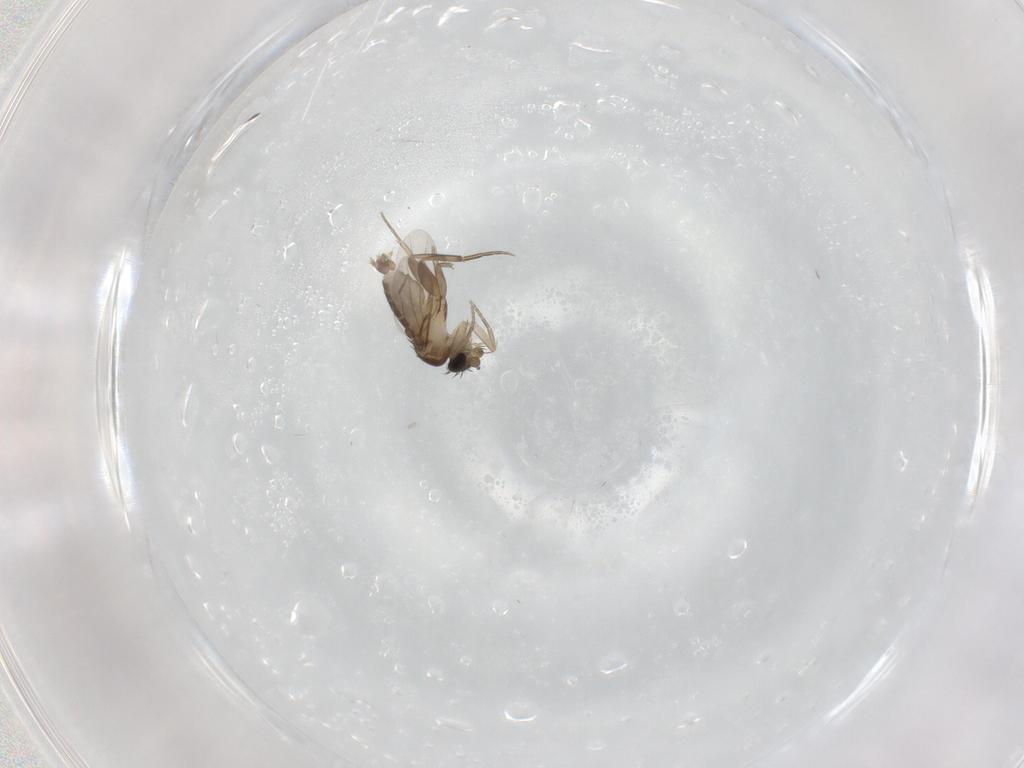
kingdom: Animalia
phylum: Arthropoda
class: Insecta
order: Diptera
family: Phoridae
